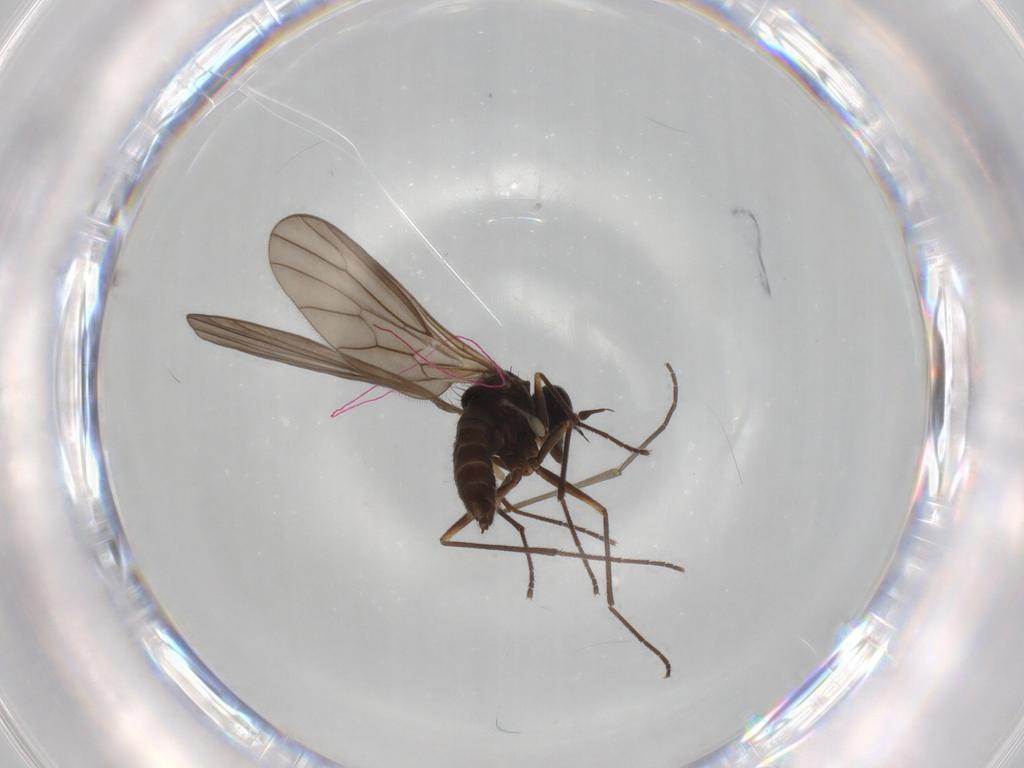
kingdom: Animalia
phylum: Arthropoda
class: Insecta
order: Diptera
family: Empididae
